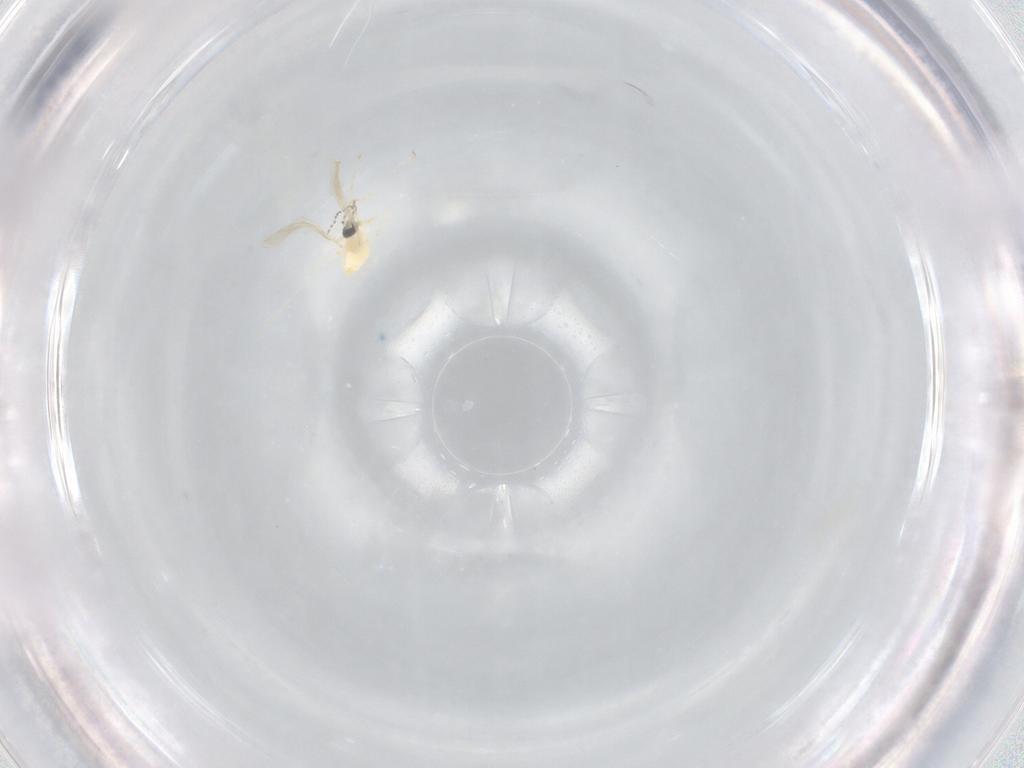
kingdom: Animalia
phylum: Arthropoda
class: Insecta
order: Diptera
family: Cecidomyiidae
